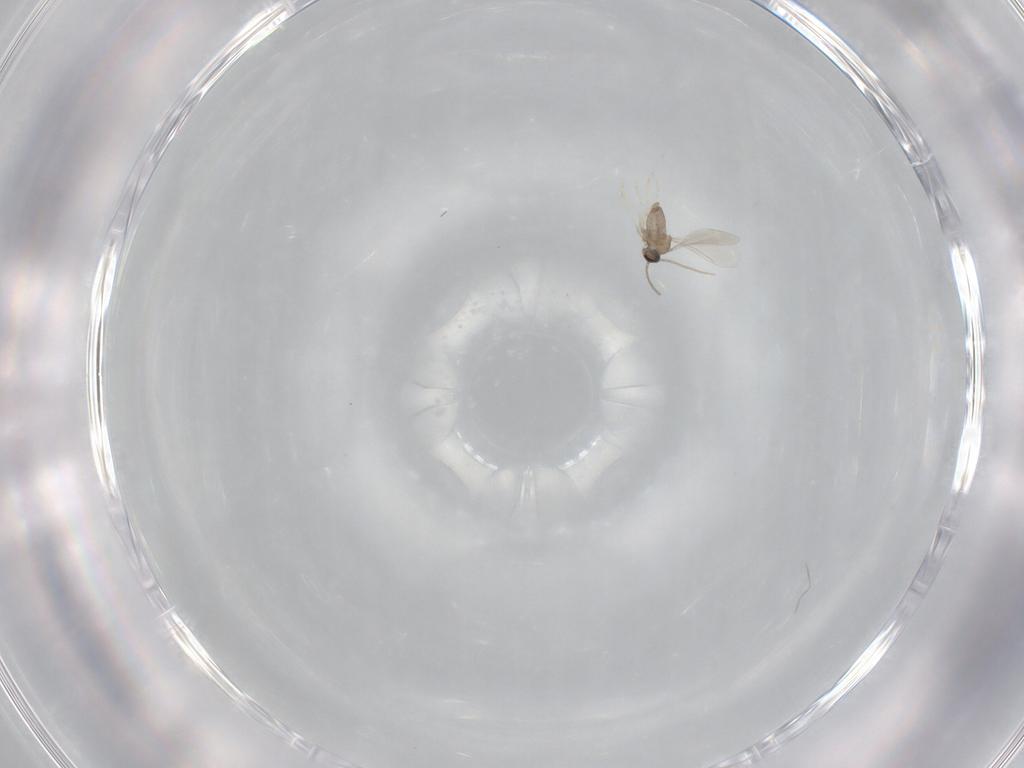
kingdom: Animalia
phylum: Arthropoda
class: Insecta
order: Diptera
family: Cecidomyiidae
